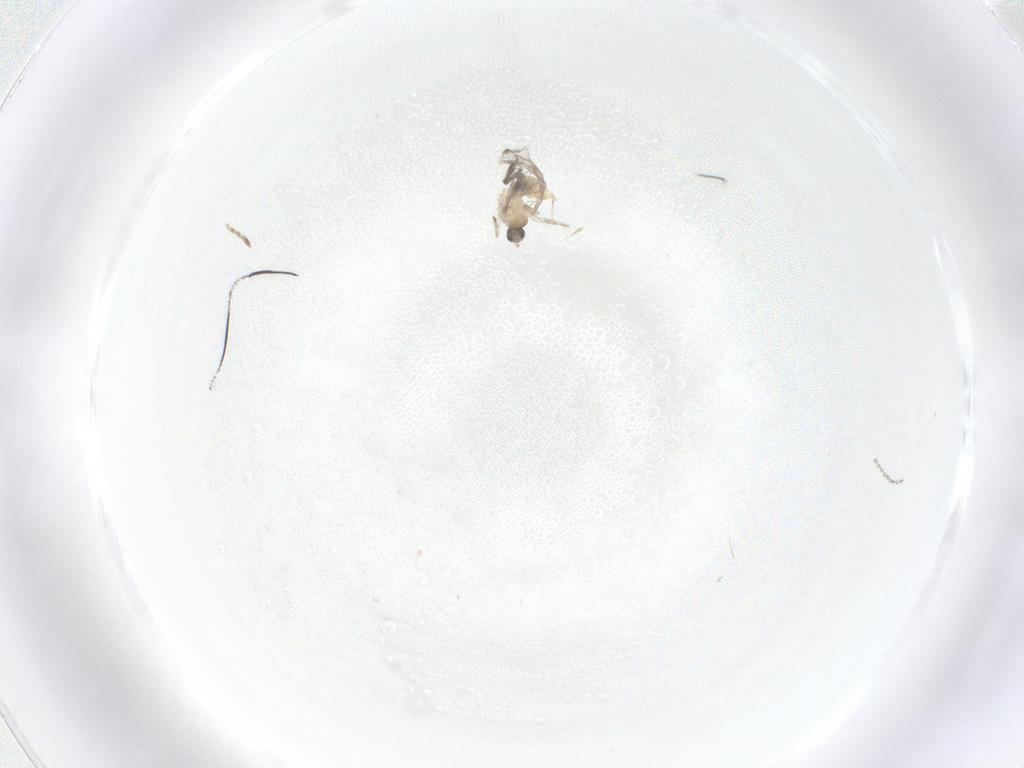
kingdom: Animalia
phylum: Arthropoda
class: Insecta
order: Diptera
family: Cecidomyiidae
